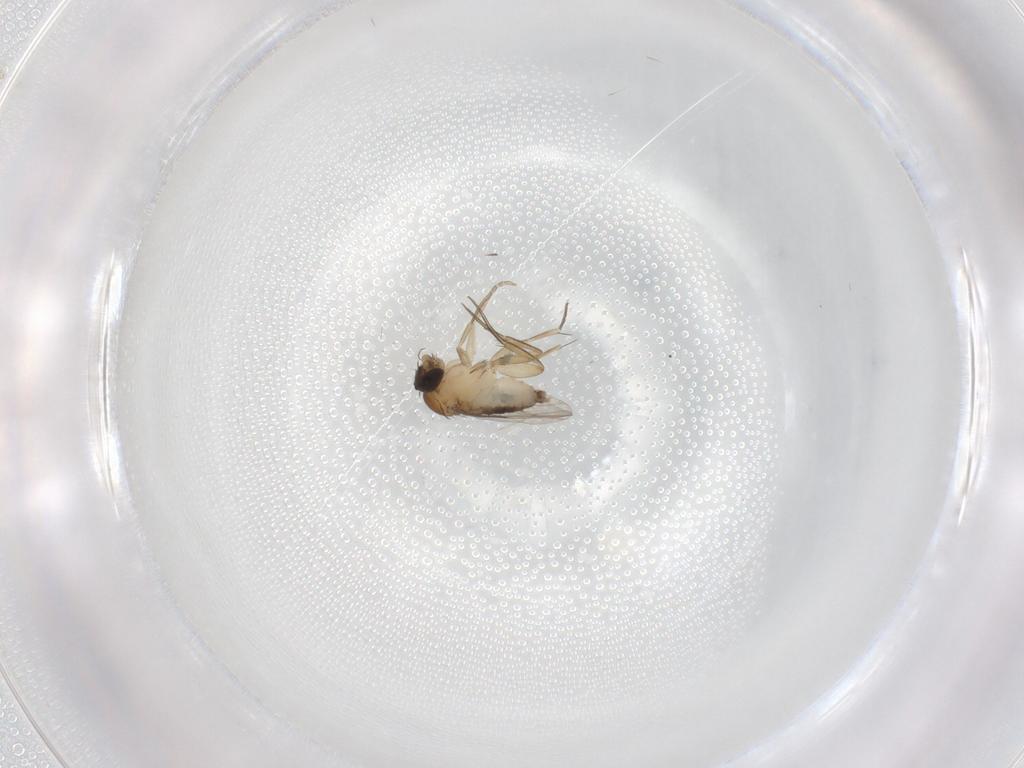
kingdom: Animalia
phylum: Arthropoda
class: Insecta
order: Diptera
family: Phoridae
